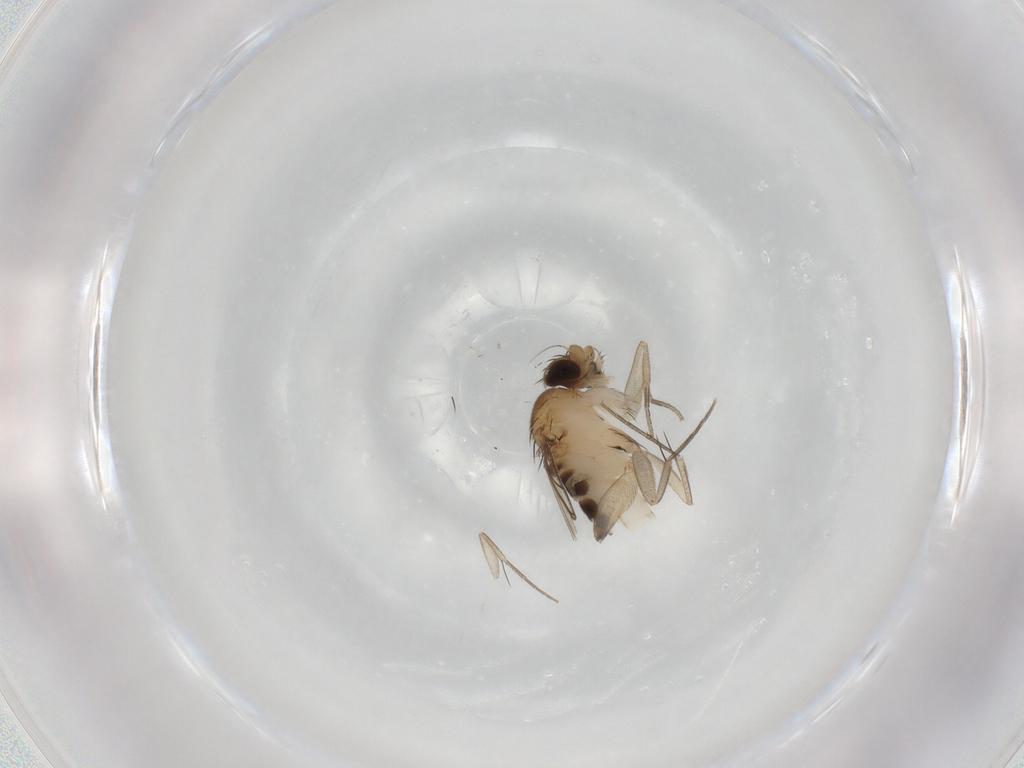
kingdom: Animalia
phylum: Arthropoda
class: Insecta
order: Diptera
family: Phoridae
